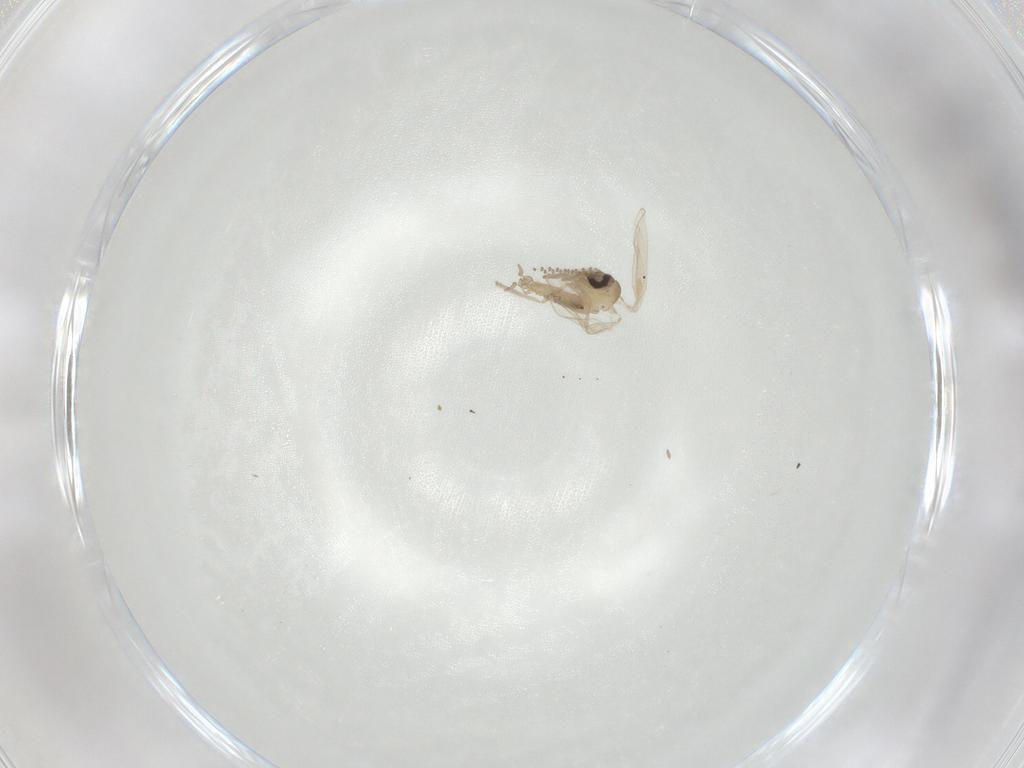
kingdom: Animalia
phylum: Arthropoda
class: Insecta
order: Diptera
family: Psychodidae
